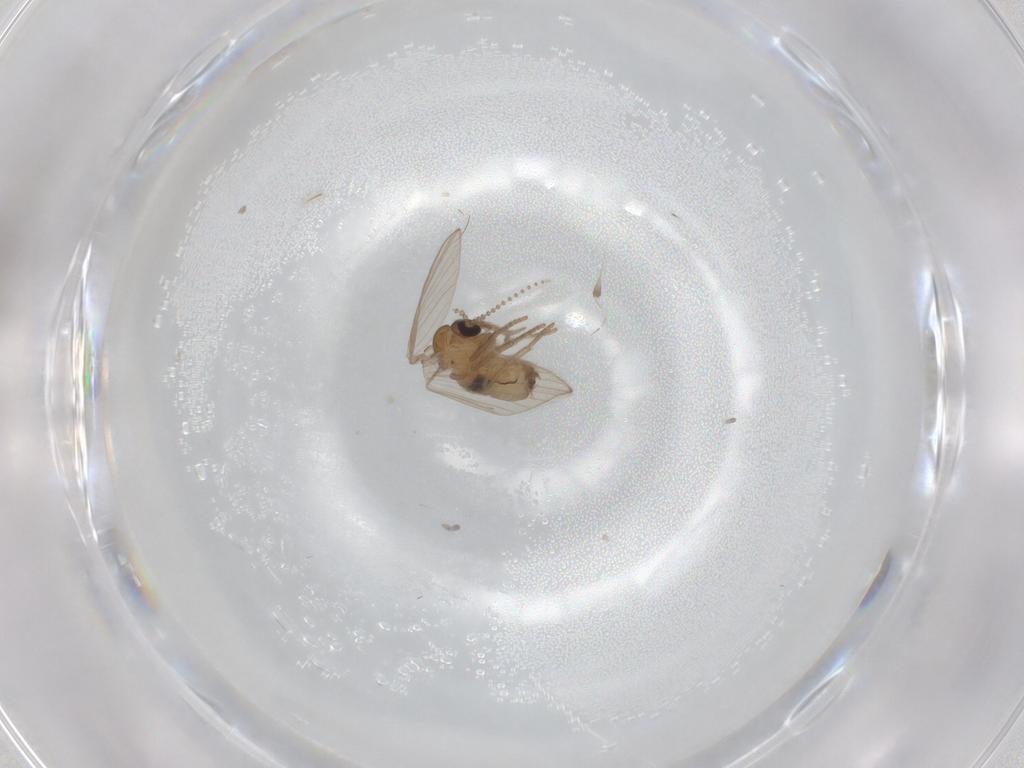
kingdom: Animalia
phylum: Arthropoda
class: Insecta
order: Diptera
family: Psychodidae
